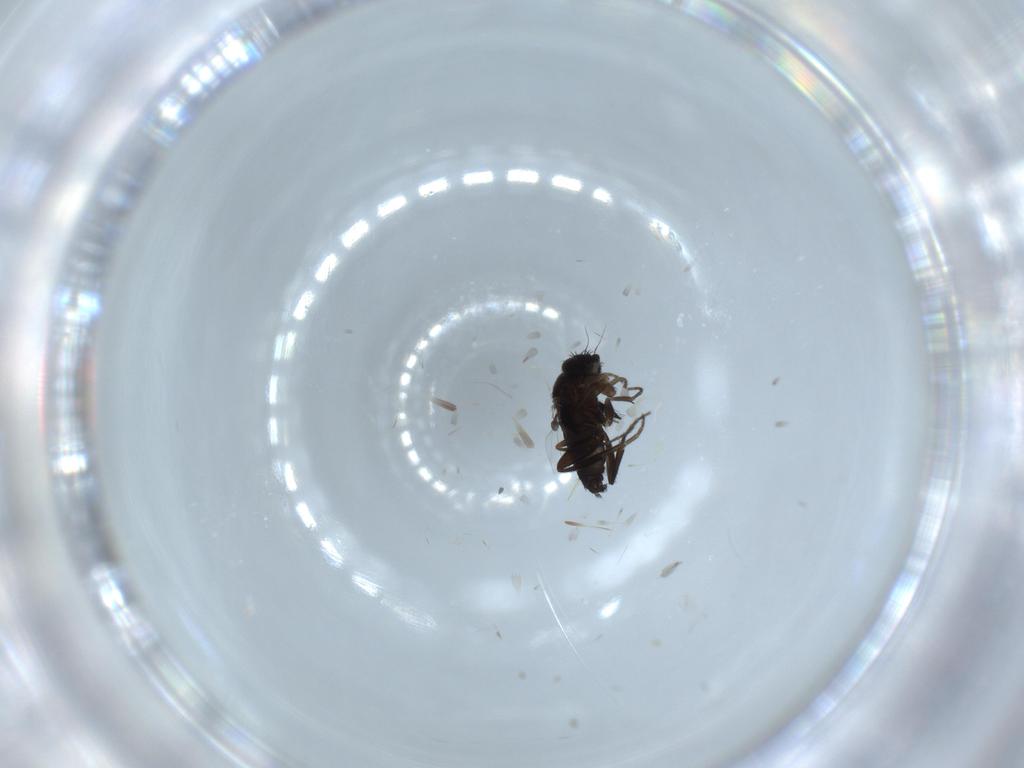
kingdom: Animalia
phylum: Arthropoda
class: Insecta
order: Diptera
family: Phoridae
